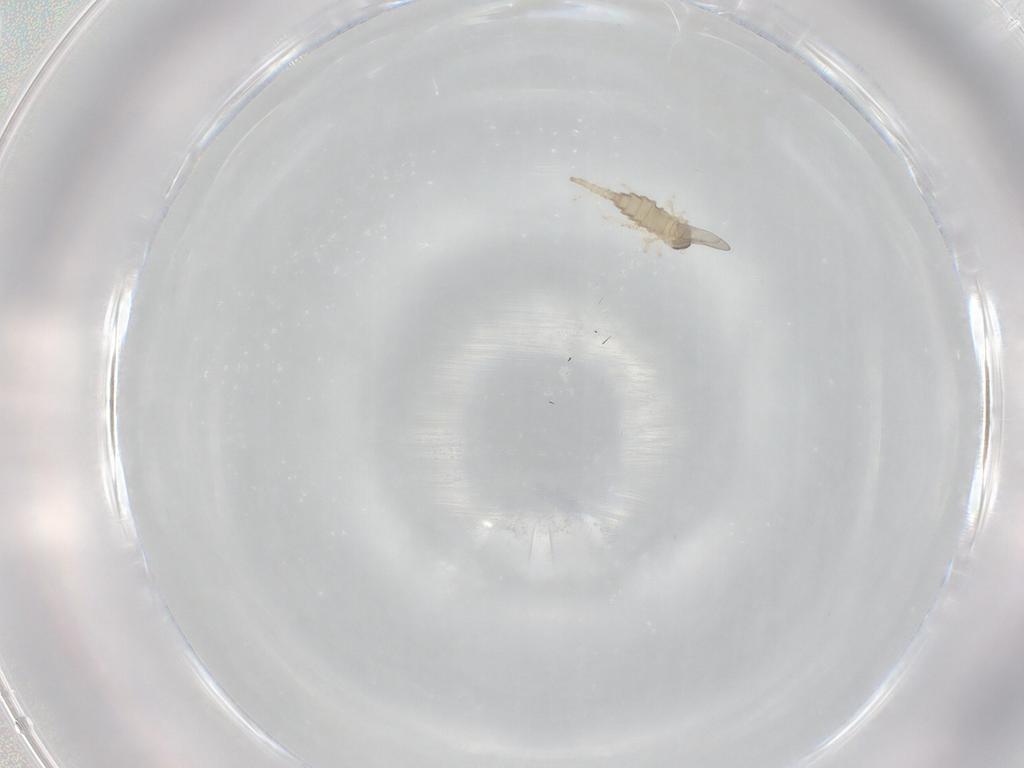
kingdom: Animalia
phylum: Arthropoda
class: Insecta
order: Diptera
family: Cecidomyiidae
